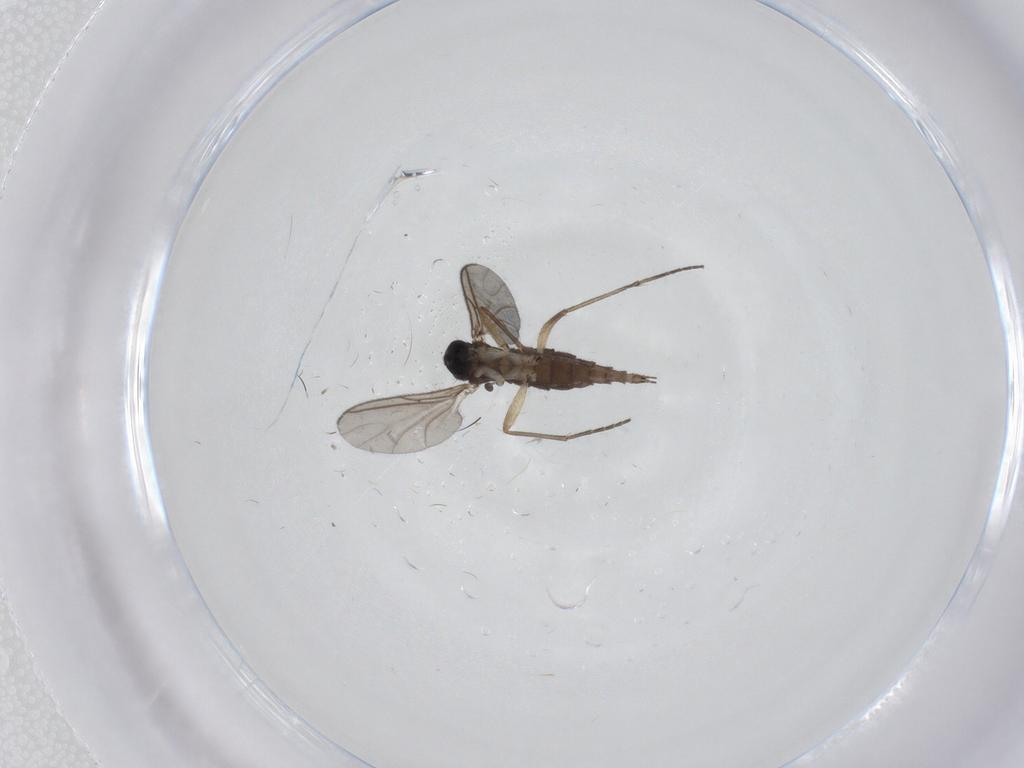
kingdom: Animalia
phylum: Arthropoda
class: Insecta
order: Diptera
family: Sciaridae
